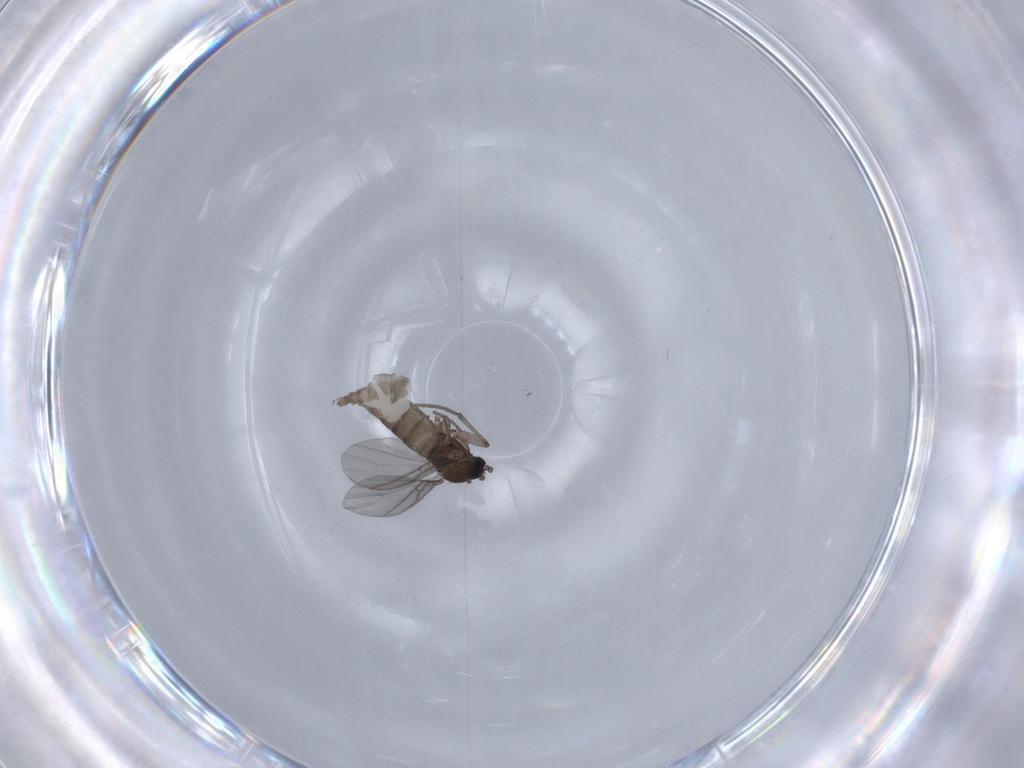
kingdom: Animalia
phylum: Arthropoda
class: Insecta
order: Diptera
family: Sciaridae
